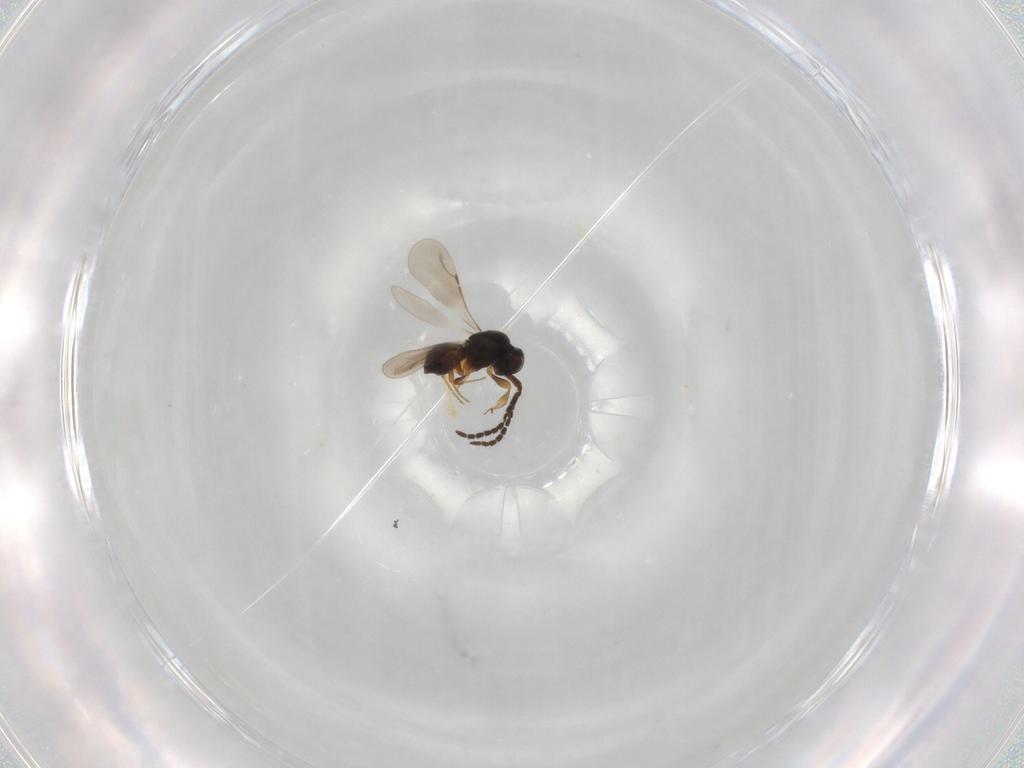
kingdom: Animalia
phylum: Arthropoda
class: Insecta
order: Hymenoptera
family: Ceraphronidae
